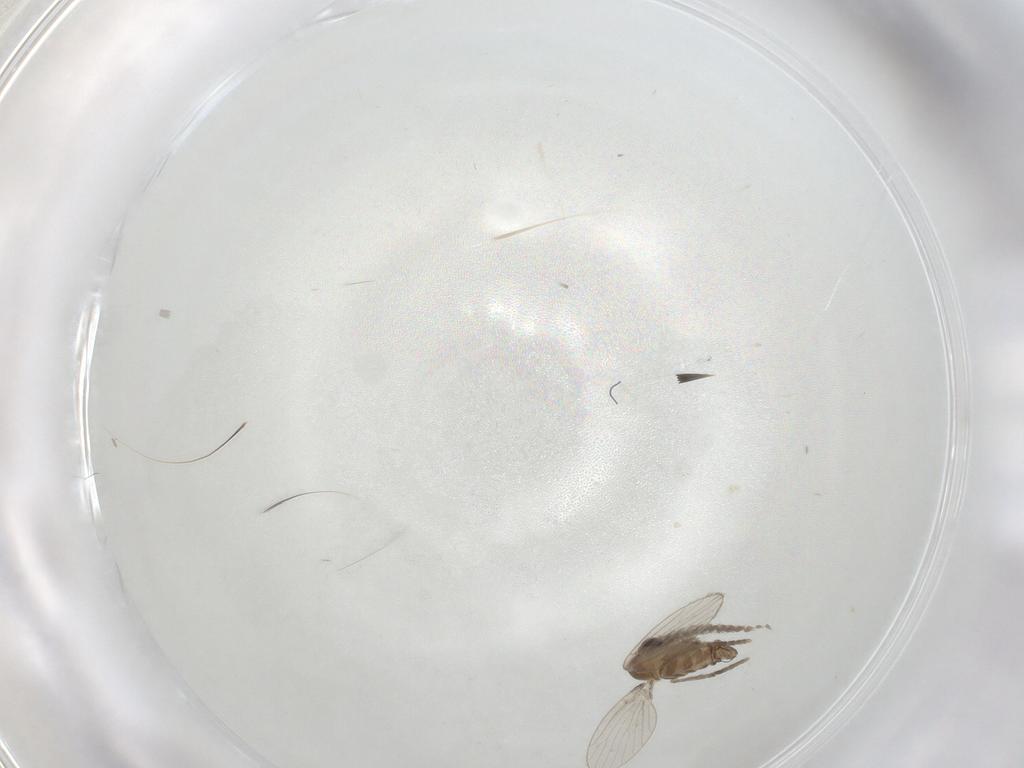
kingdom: Animalia
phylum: Arthropoda
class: Insecta
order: Diptera
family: Cecidomyiidae
